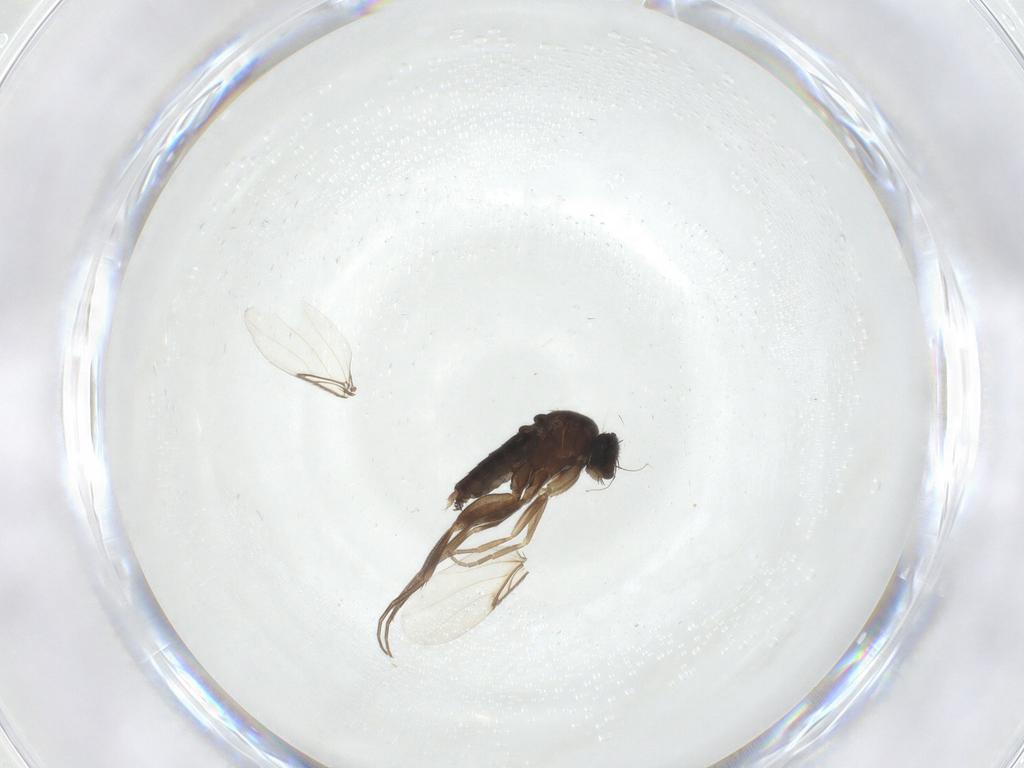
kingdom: Animalia
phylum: Arthropoda
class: Insecta
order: Diptera
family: Phoridae
